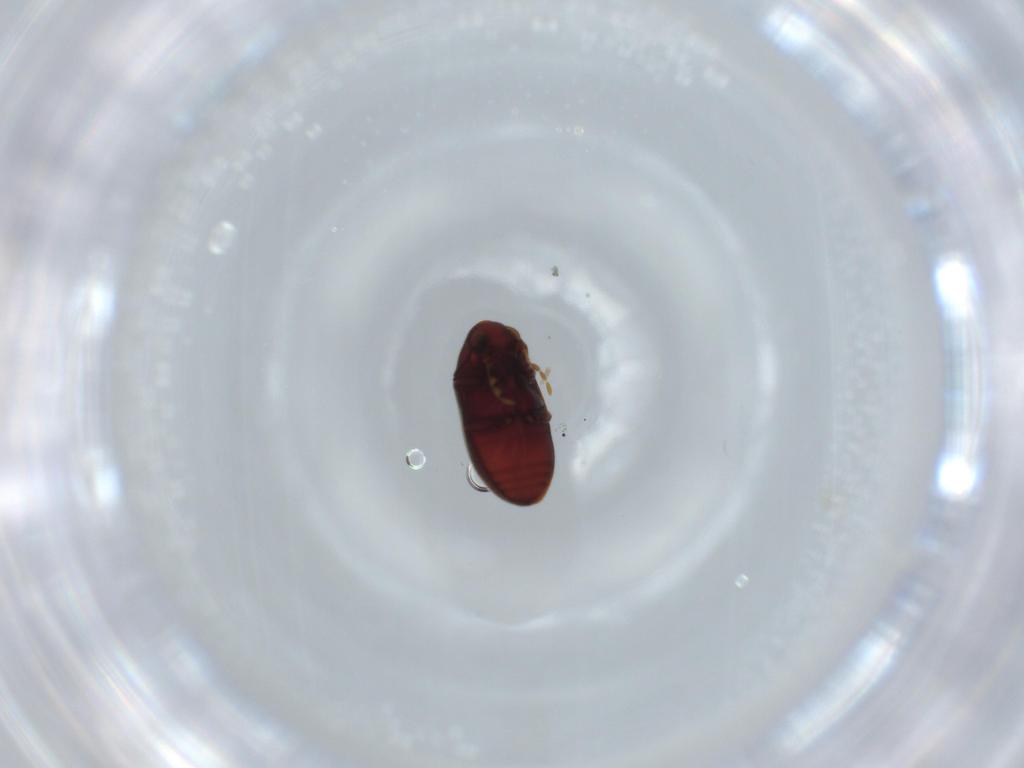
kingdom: Animalia
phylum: Arthropoda
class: Insecta
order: Coleoptera
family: Ptinidae
